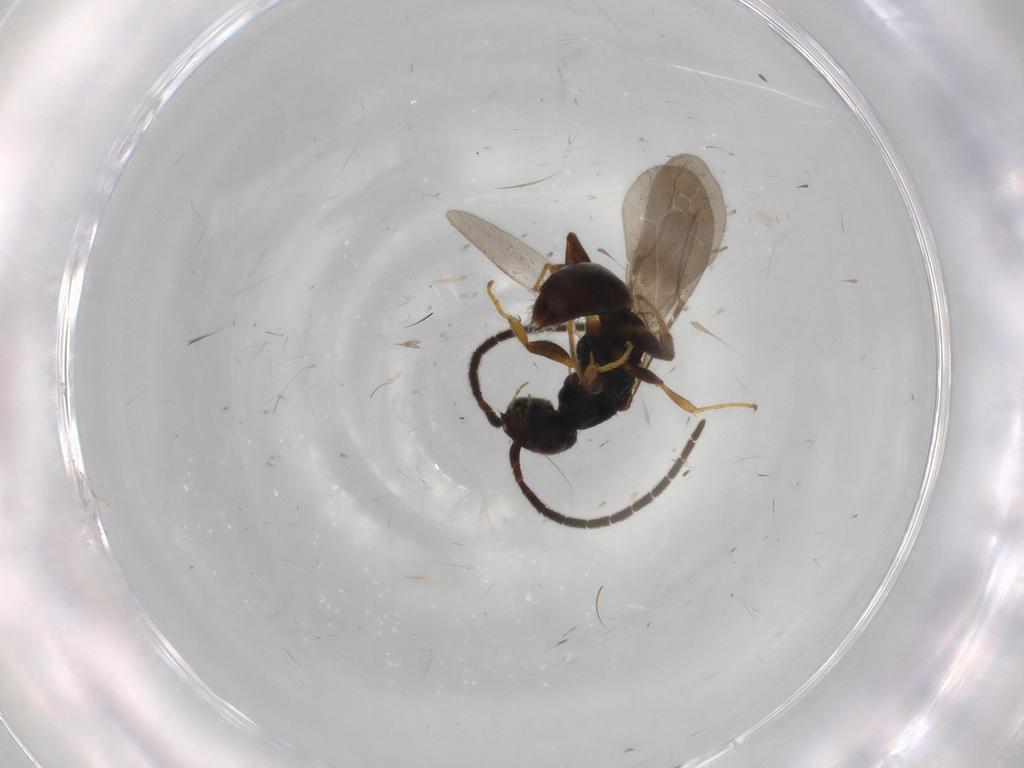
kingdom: Animalia
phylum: Arthropoda
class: Insecta
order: Hymenoptera
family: Bethylidae
